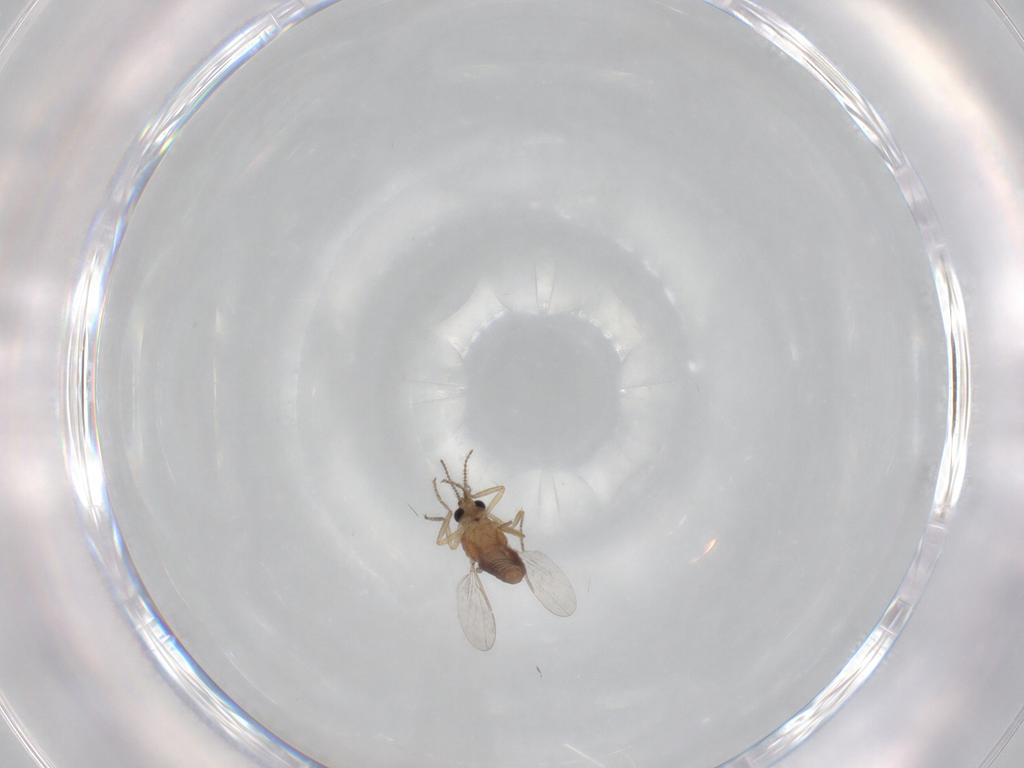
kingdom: Animalia
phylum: Arthropoda
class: Insecta
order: Diptera
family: Ceratopogonidae
